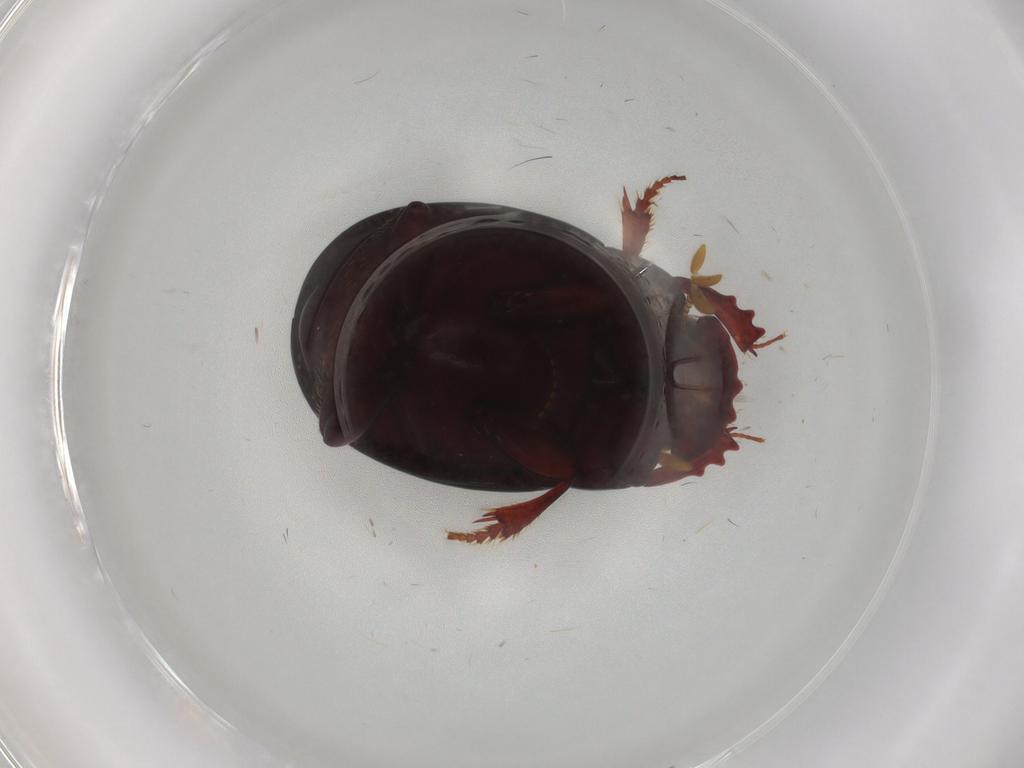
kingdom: Animalia
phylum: Arthropoda
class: Insecta
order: Coleoptera
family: Scarabaeidae
